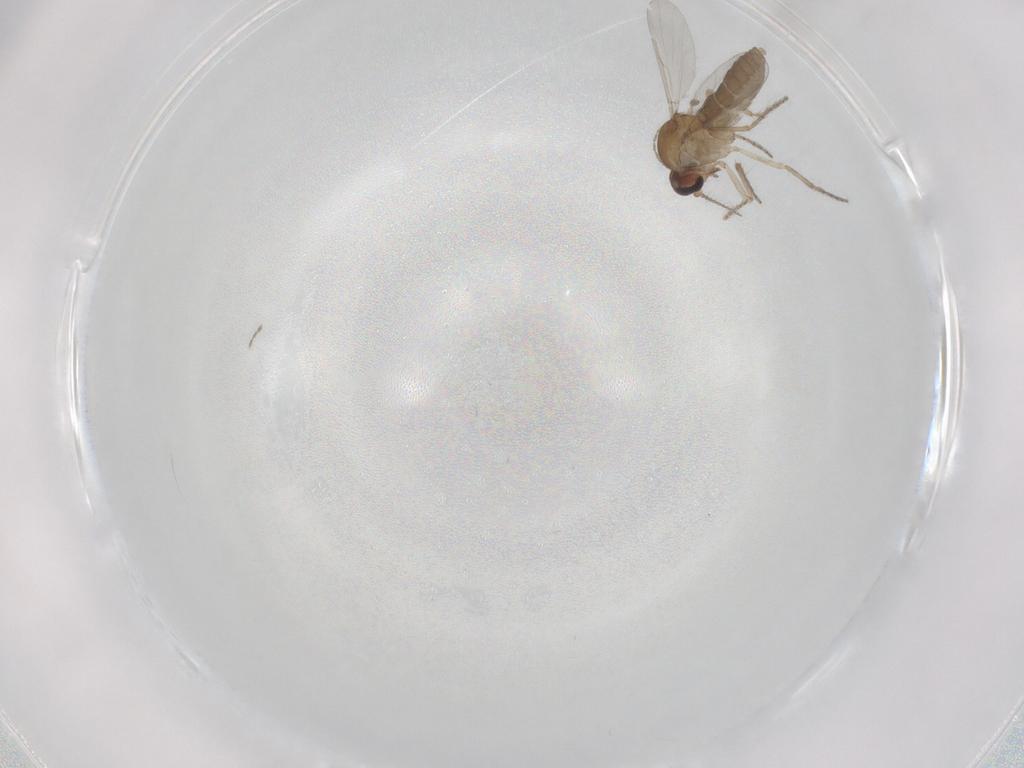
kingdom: Animalia
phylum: Arthropoda
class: Insecta
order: Diptera
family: Ceratopogonidae
